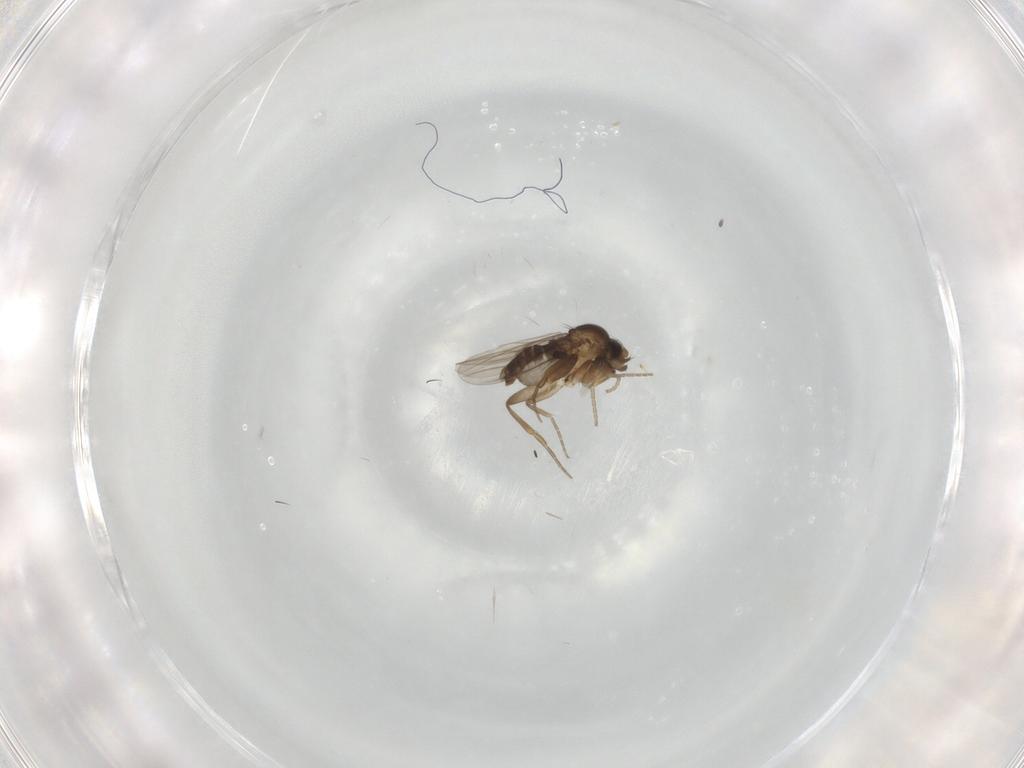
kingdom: Animalia
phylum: Arthropoda
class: Insecta
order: Diptera
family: Phoridae
